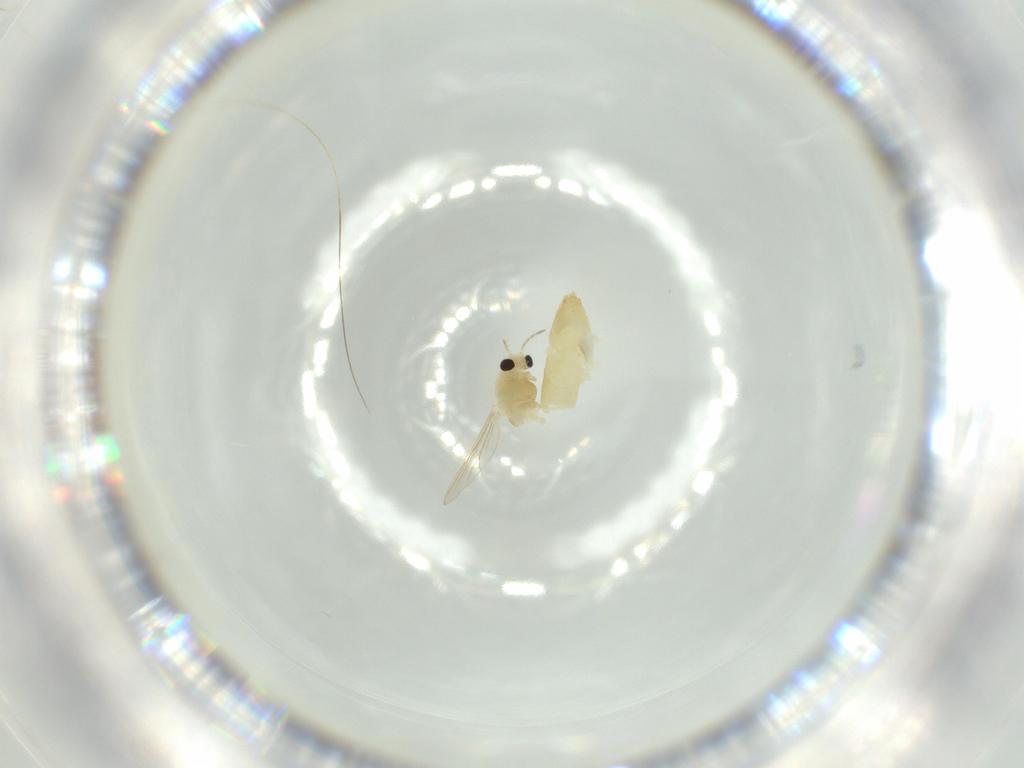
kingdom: Animalia
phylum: Arthropoda
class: Insecta
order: Diptera
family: Chironomidae
